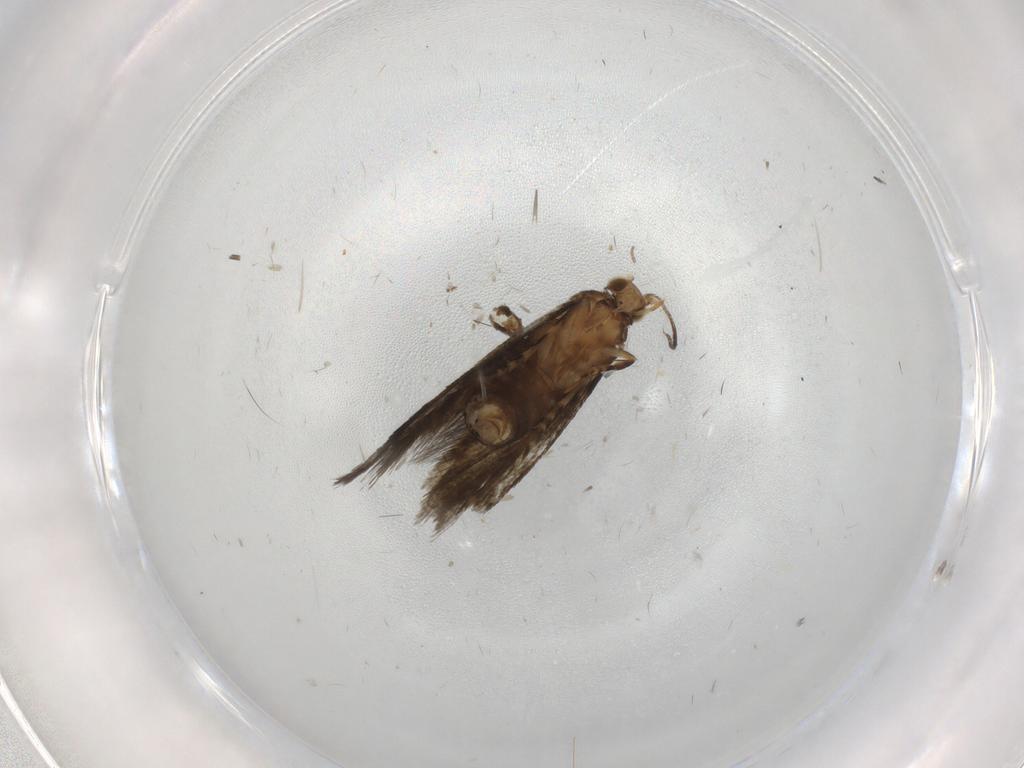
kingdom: Animalia
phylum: Arthropoda
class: Insecta
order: Lepidoptera
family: Tineidae
